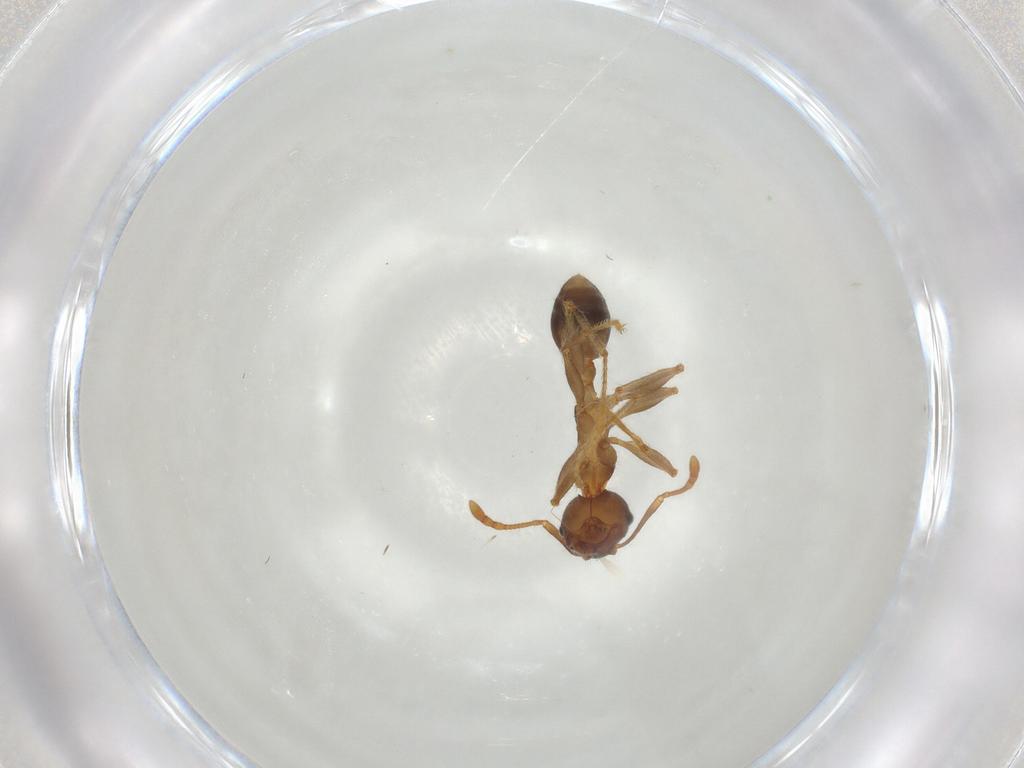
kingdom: Animalia
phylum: Arthropoda
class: Insecta
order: Hymenoptera
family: Formicidae
